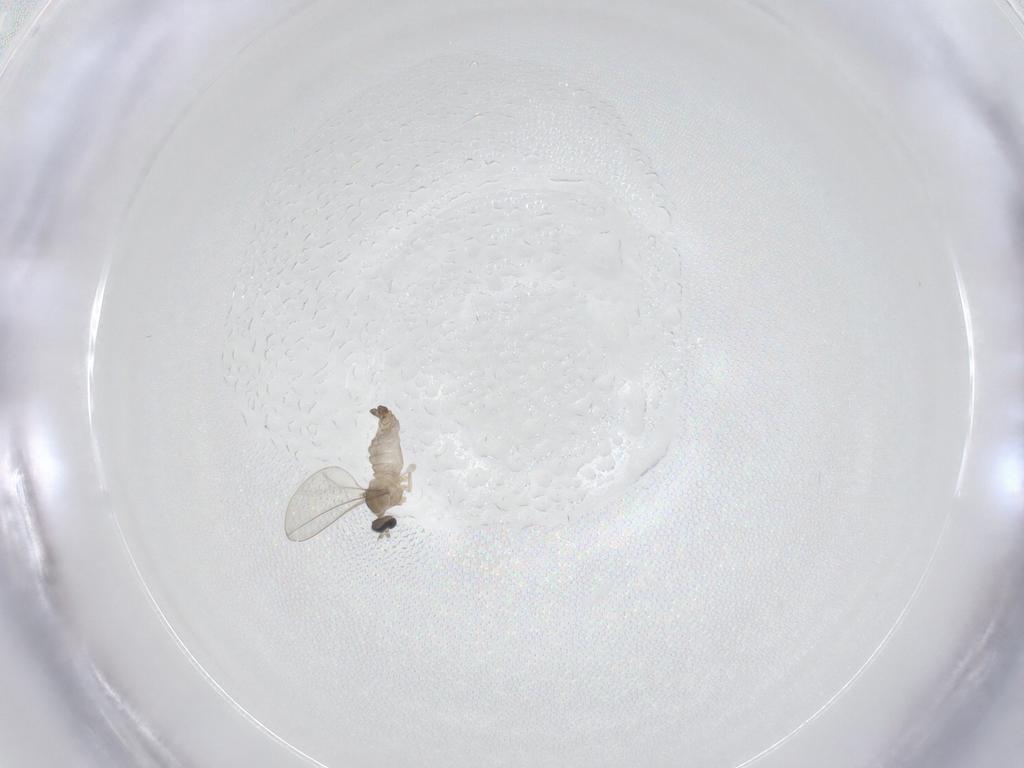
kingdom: Animalia
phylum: Arthropoda
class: Insecta
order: Diptera
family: Cecidomyiidae
